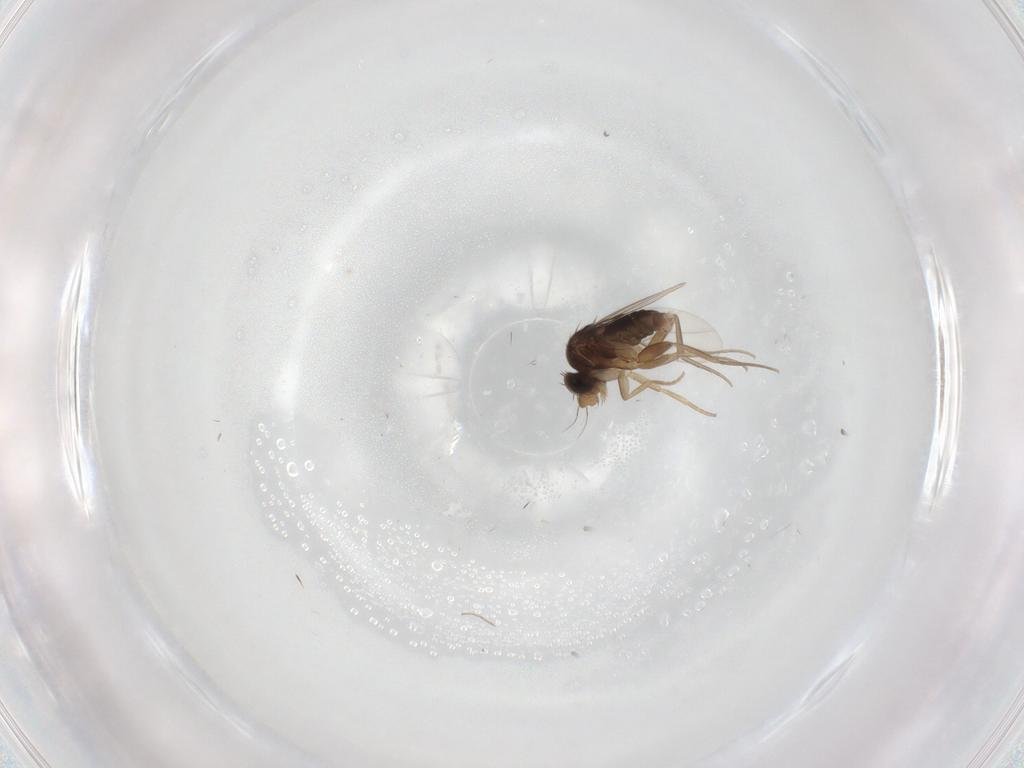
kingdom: Animalia
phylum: Arthropoda
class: Insecta
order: Diptera
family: Phoridae
